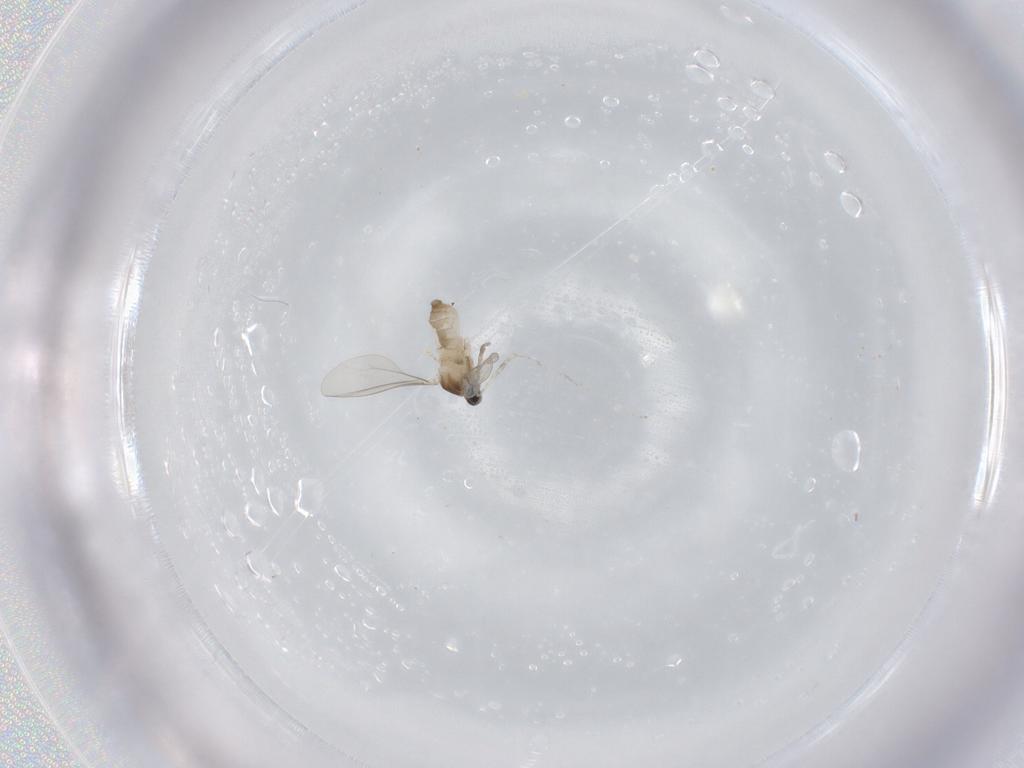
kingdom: Animalia
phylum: Arthropoda
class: Insecta
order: Diptera
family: Cecidomyiidae
